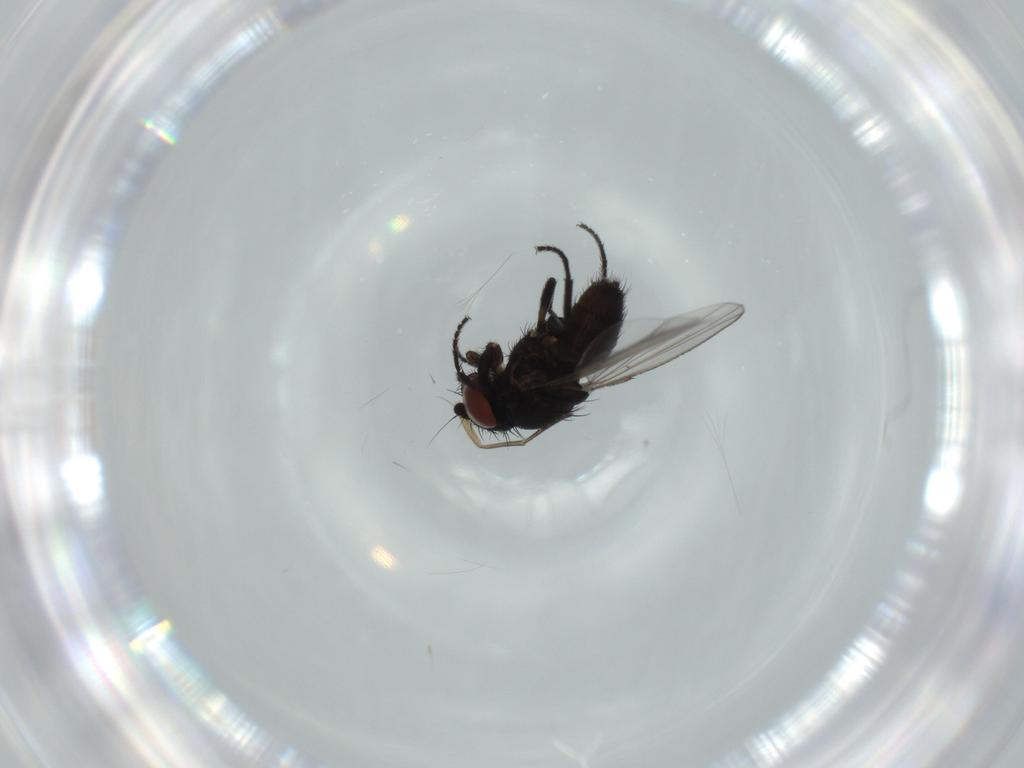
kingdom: Animalia
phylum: Arthropoda
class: Insecta
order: Diptera
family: Milichiidae
